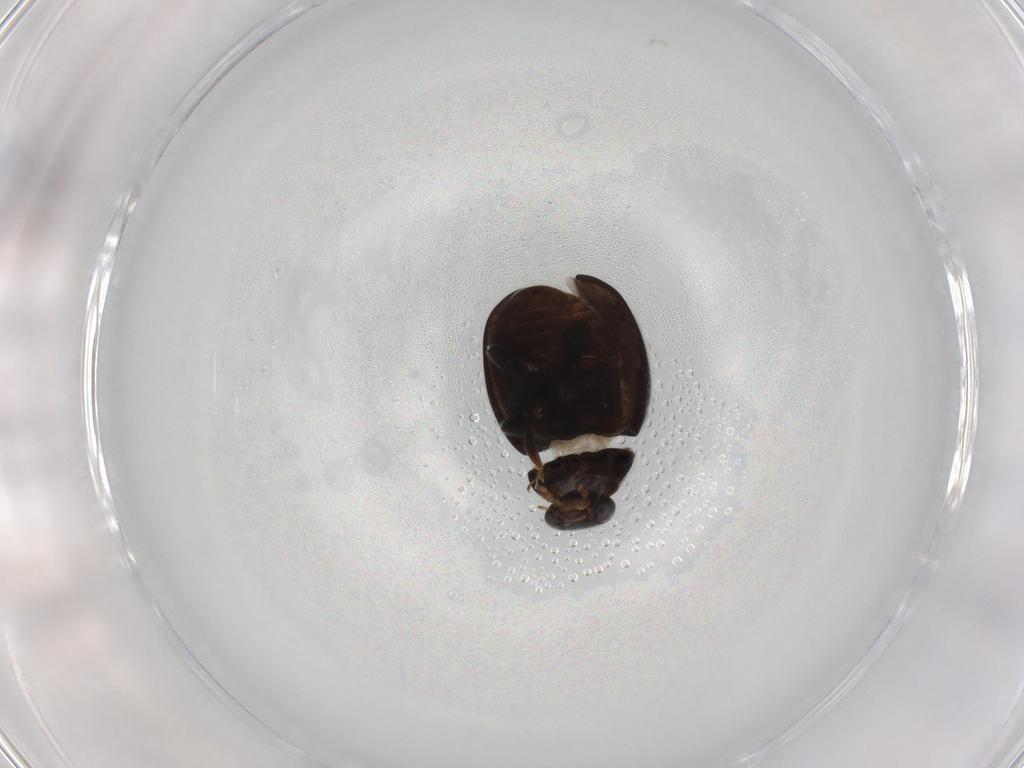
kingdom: Animalia
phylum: Arthropoda
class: Insecta
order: Coleoptera
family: Coccinellidae
